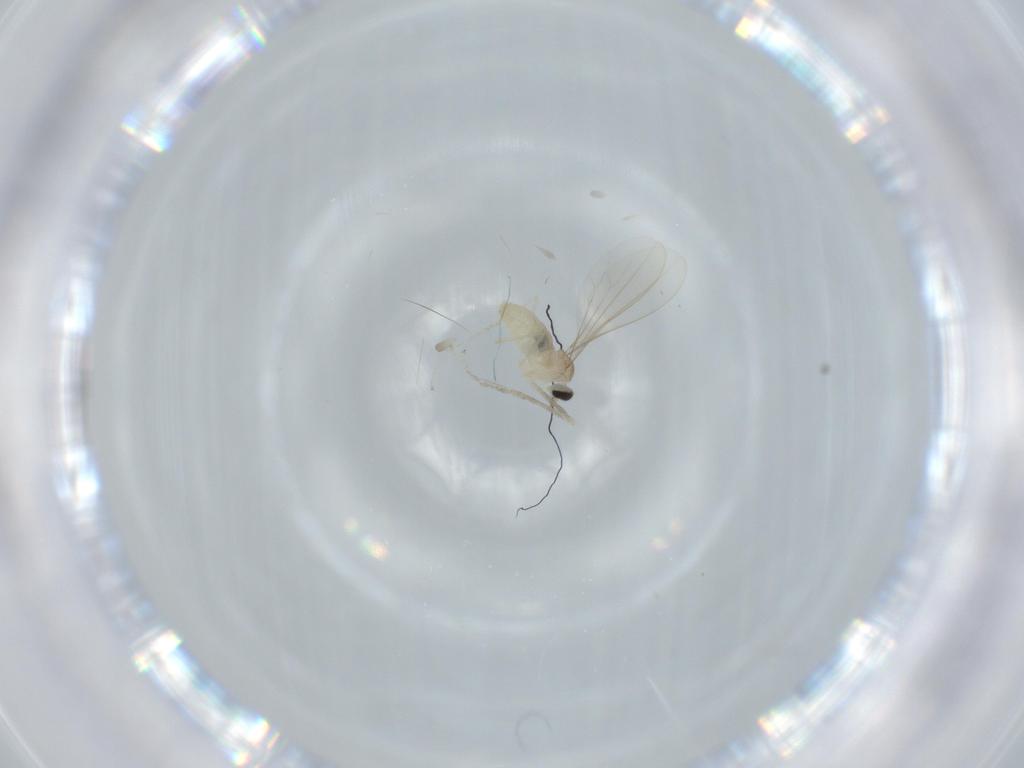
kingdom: Animalia
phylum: Arthropoda
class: Insecta
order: Diptera
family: Cecidomyiidae
